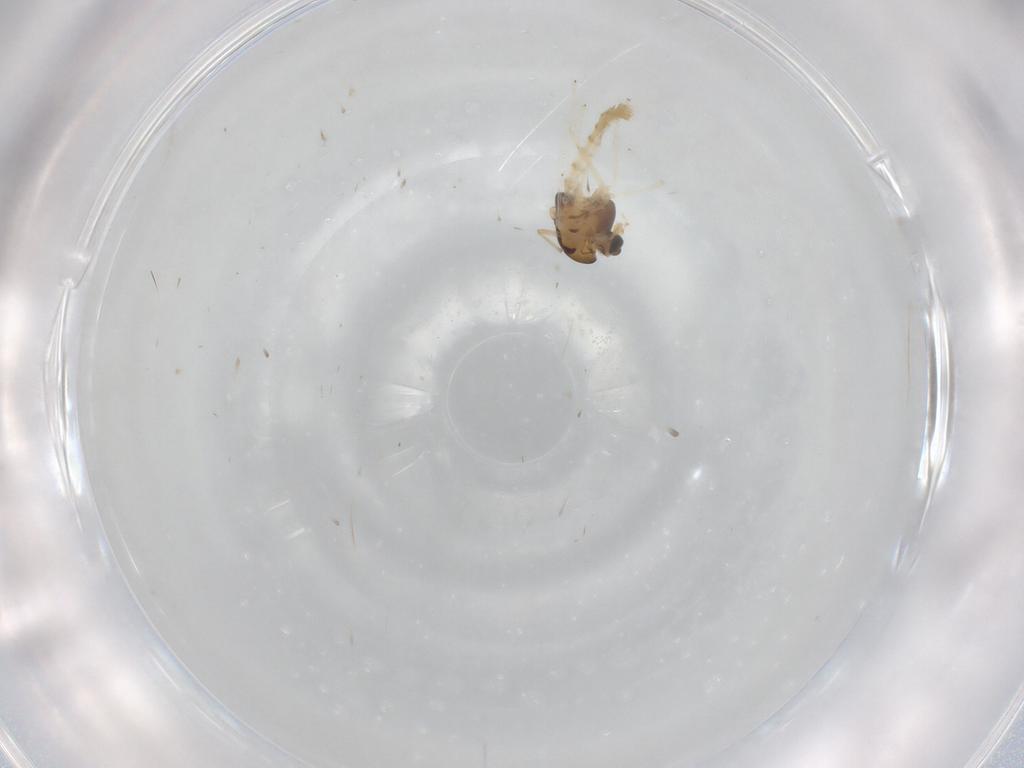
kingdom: Animalia
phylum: Arthropoda
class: Insecta
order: Diptera
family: Chironomidae
